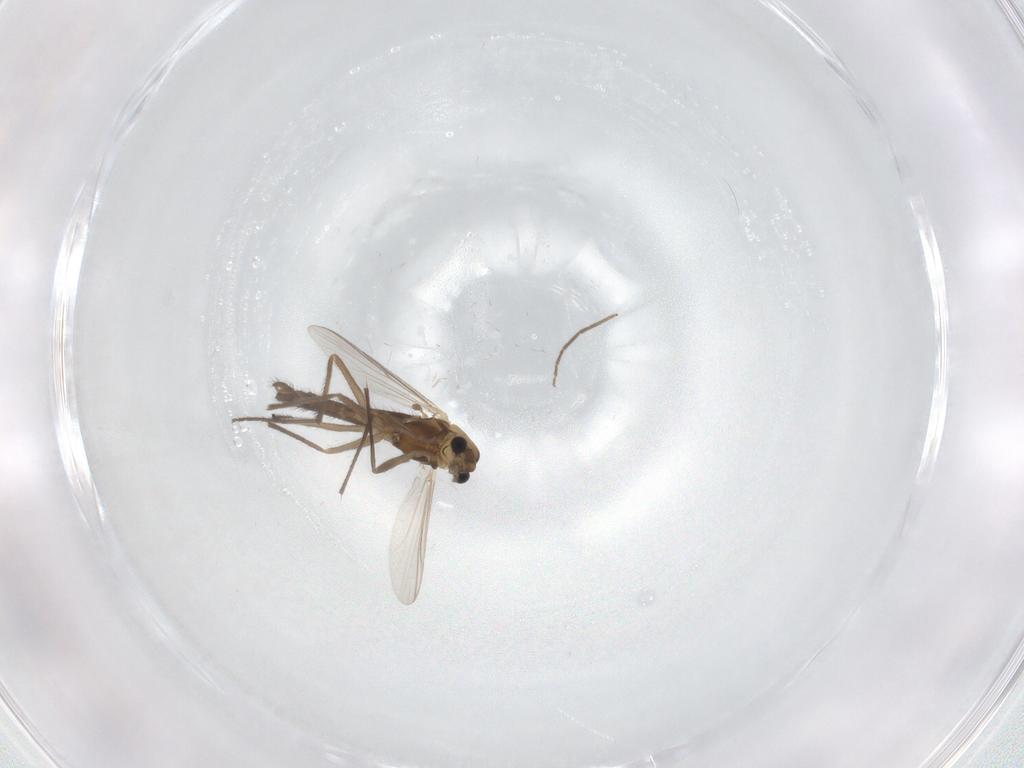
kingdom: Animalia
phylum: Arthropoda
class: Insecta
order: Diptera
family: Chironomidae
